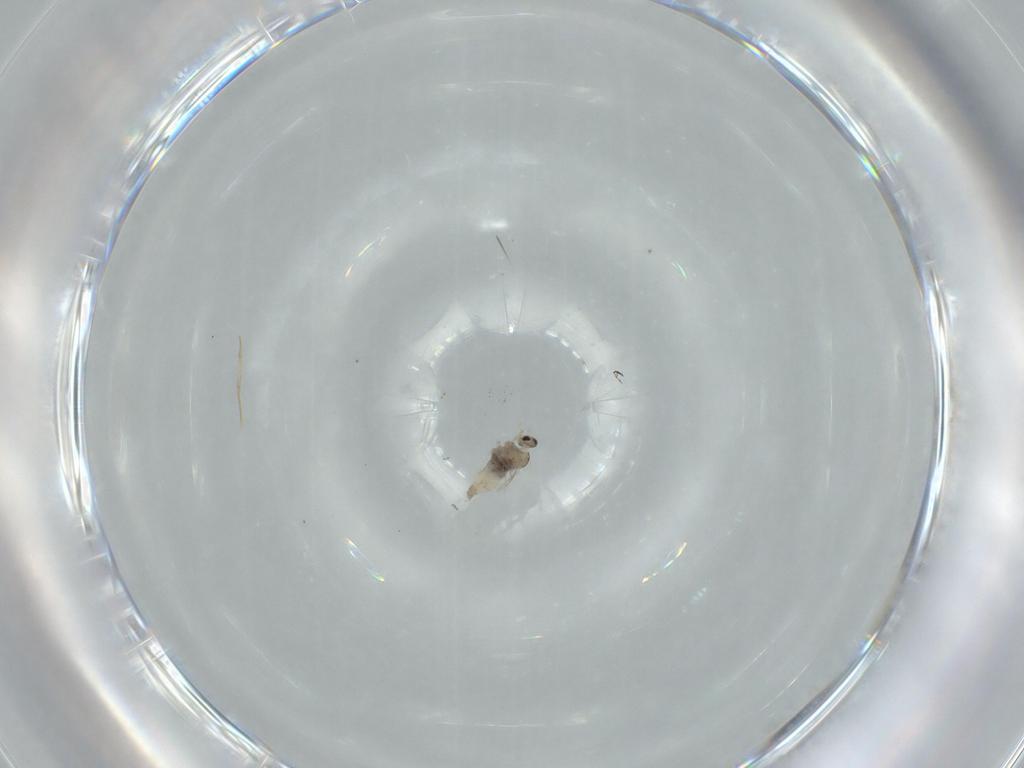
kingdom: Animalia
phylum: Arthropoda
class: Insecta
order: Diptera
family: Cecidomyiidae
